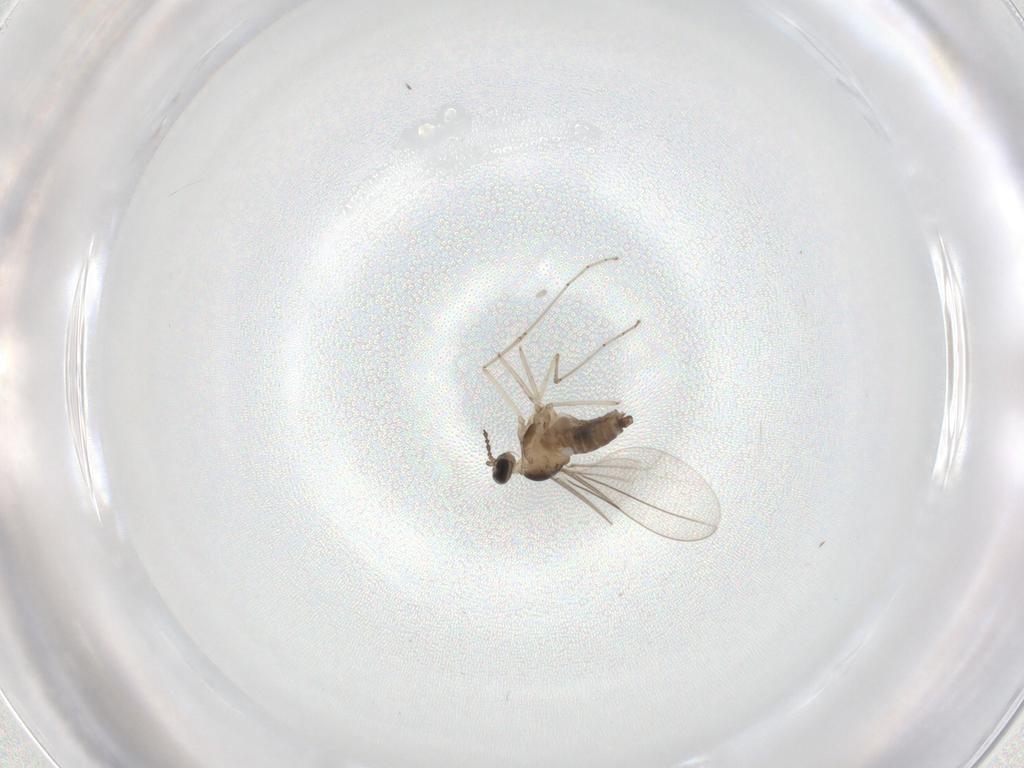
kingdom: Animalia
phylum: Arthropoda
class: Insecta
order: Diptera
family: Cecidomyiidae
